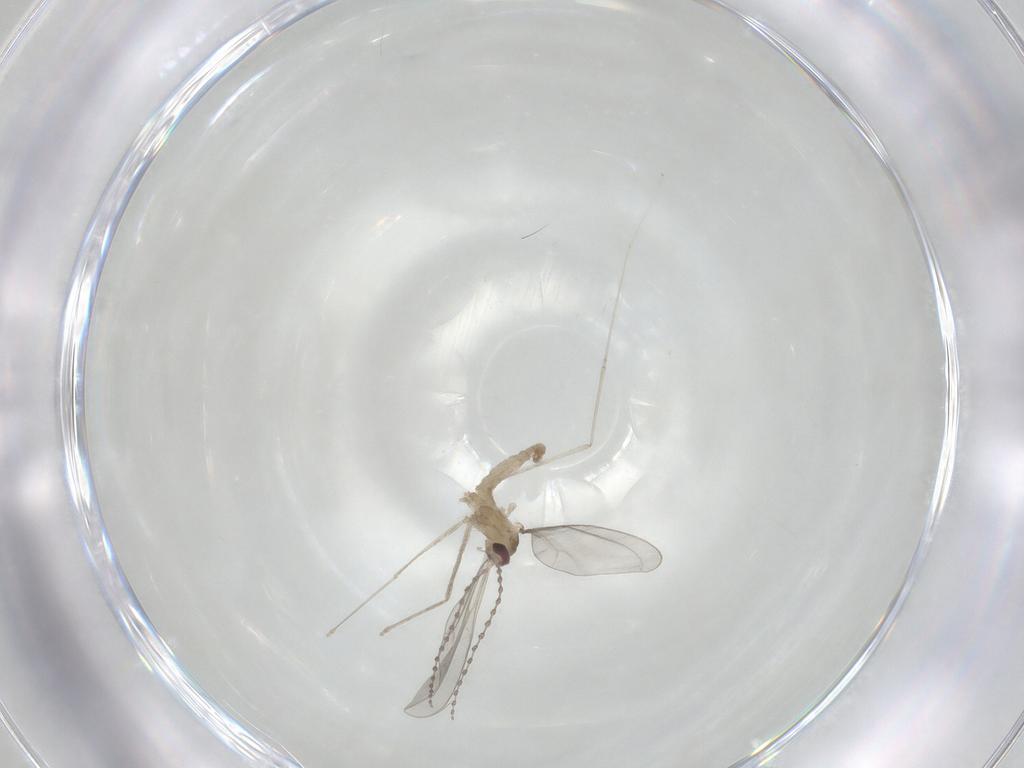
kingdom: Animalia
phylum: Arthropoda
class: Insecta
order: Diptera
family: Cecidomyiidae
